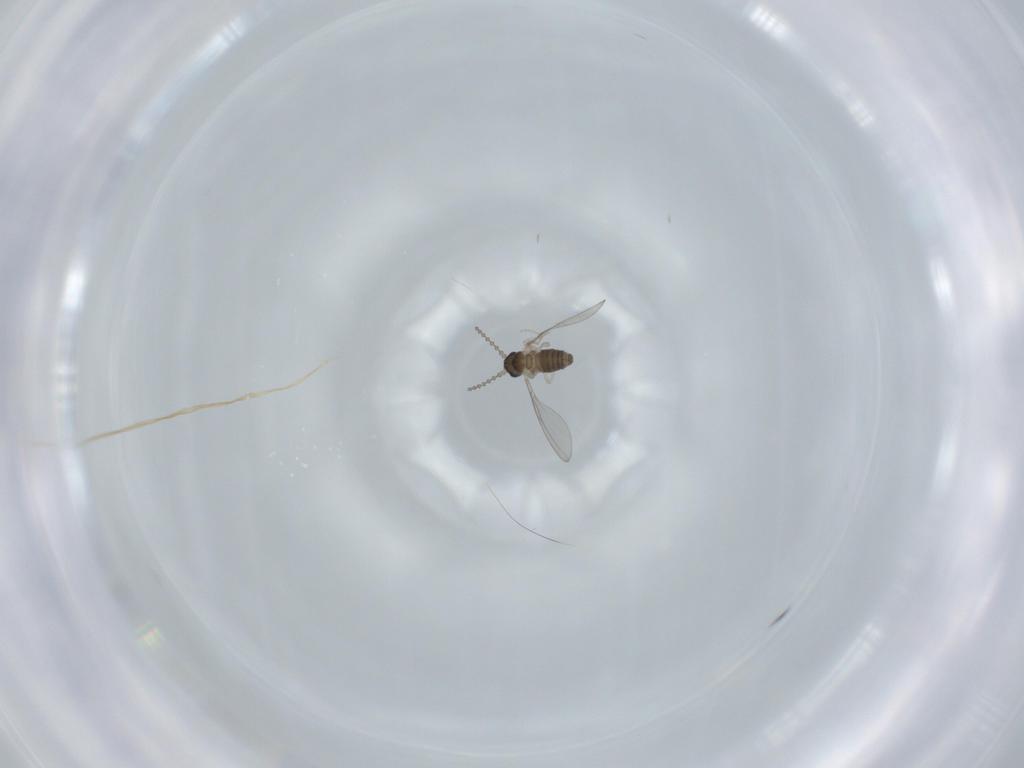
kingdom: Animalia
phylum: Arthropoda
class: Insecta
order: Diptera
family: Cecidomyiidae
